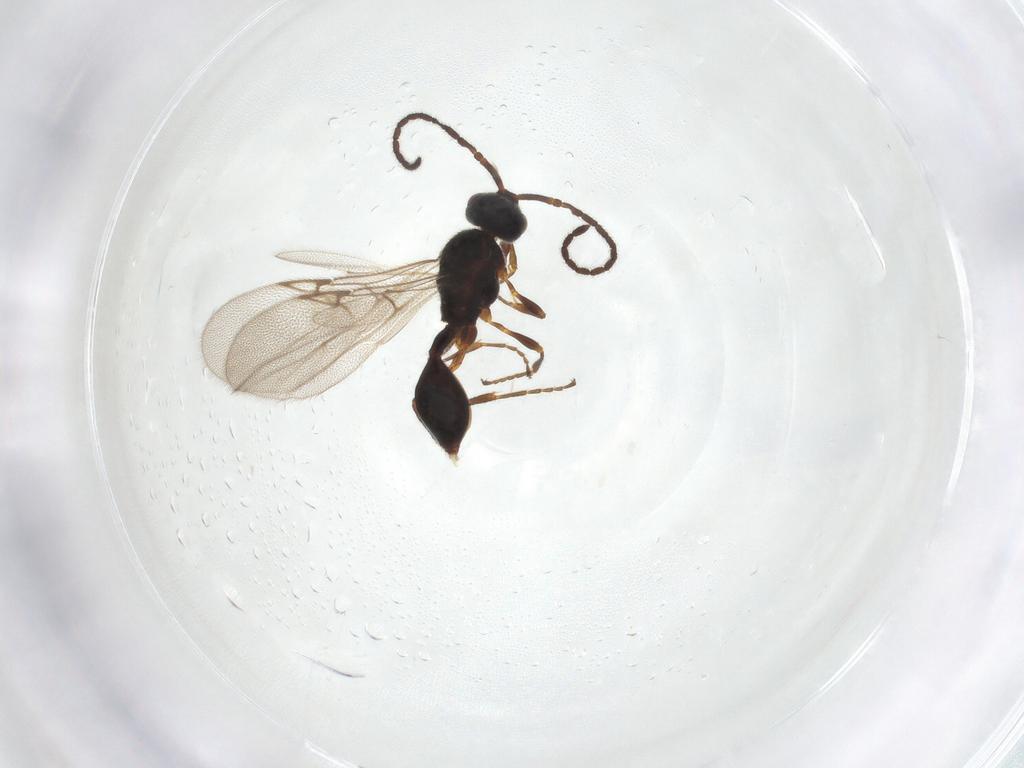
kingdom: Animalia
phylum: Arthropoda
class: Insecta
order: Hymenoptera
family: Diapriidae
